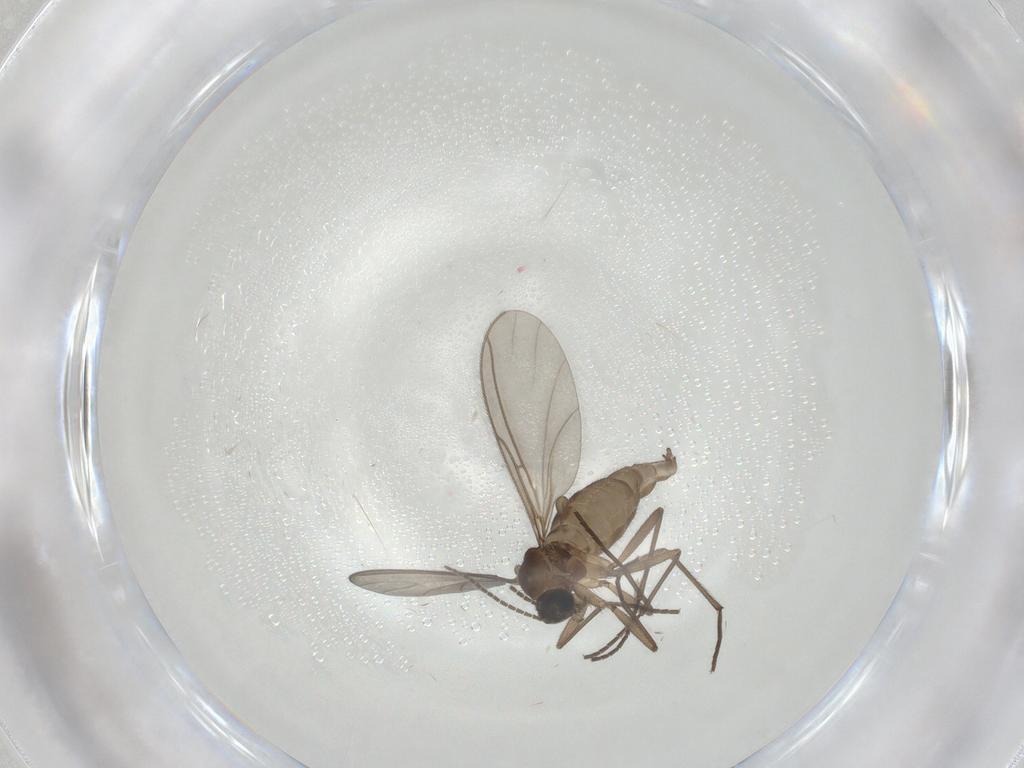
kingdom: Animalia
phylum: Arthropoda
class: Insecta
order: Diptera
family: Sciaridae
